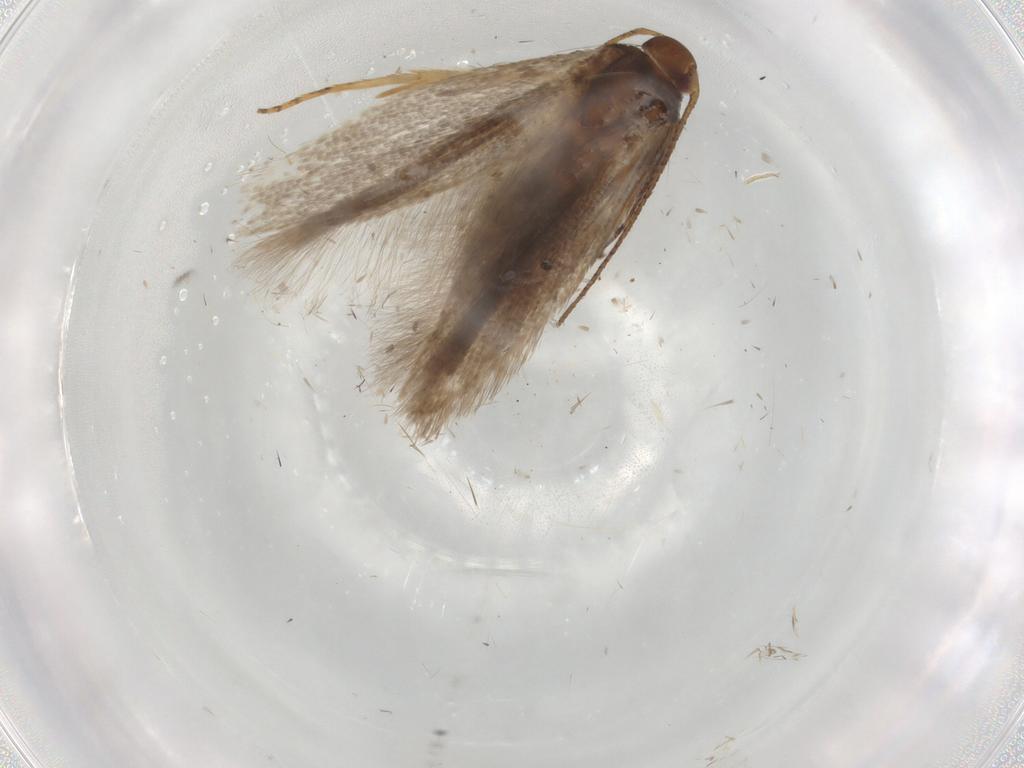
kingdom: Animalia
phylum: Arthropoda
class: Insecta
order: Lepidoptera
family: Gelechiidae
